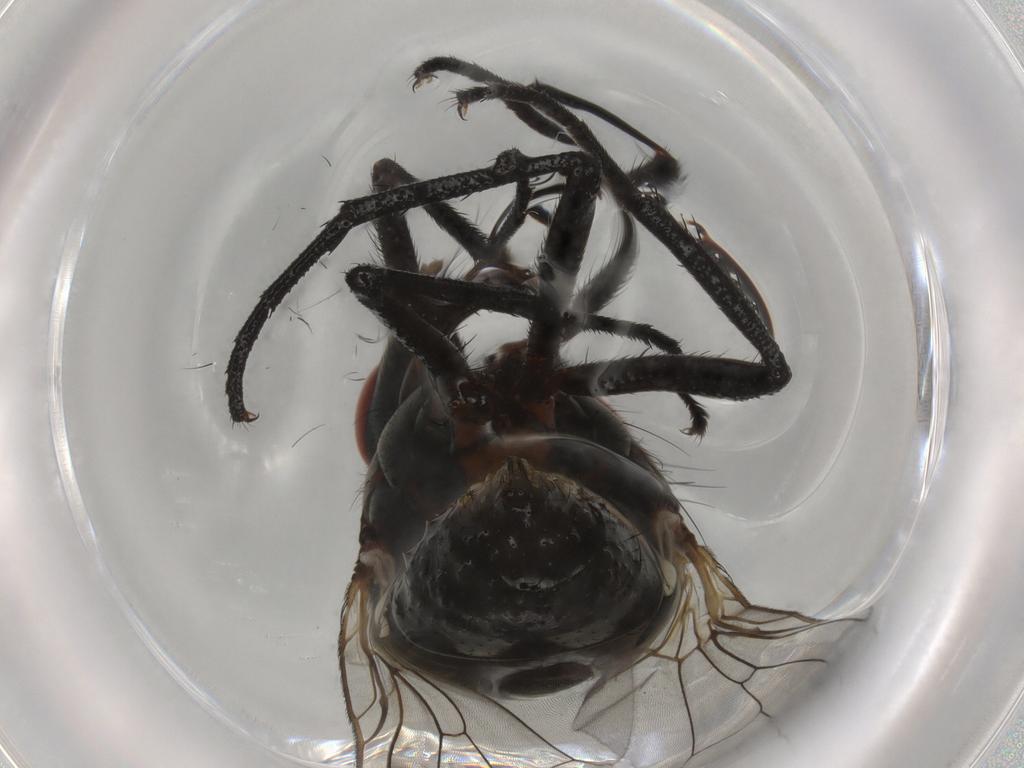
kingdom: Animalia
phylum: Arthropoda
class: Insecta
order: Diptera
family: Anthomyiidae
